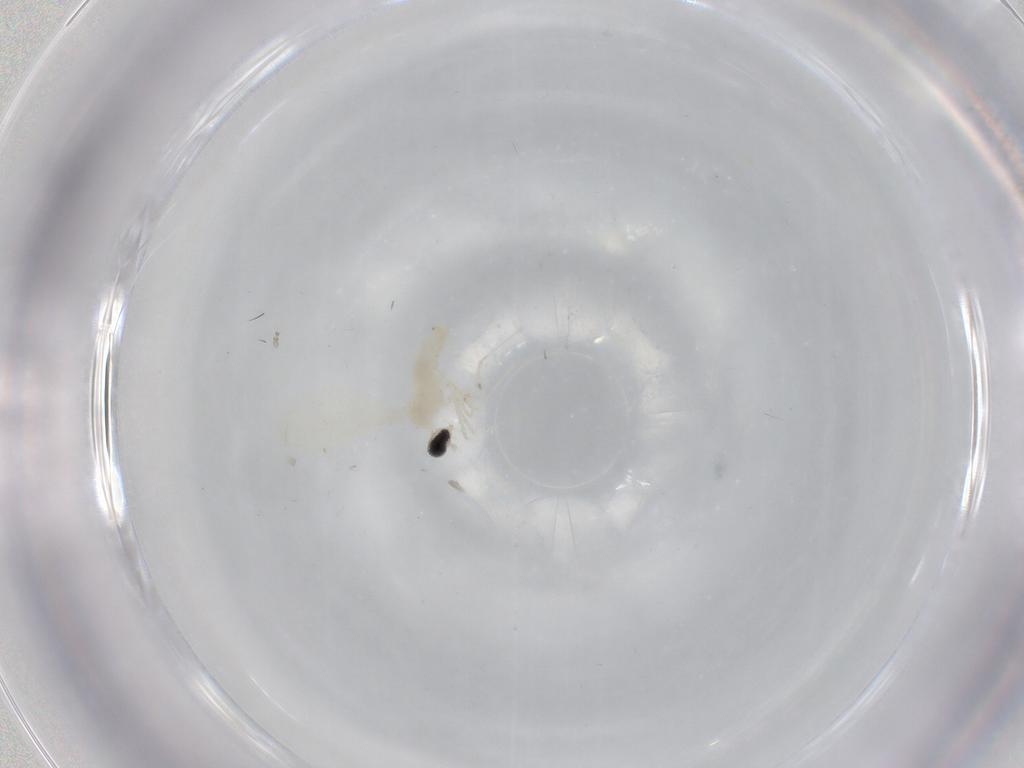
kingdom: Animalia
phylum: Arthropoda
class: Insecta
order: Diptera
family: Cecidomyiidae
